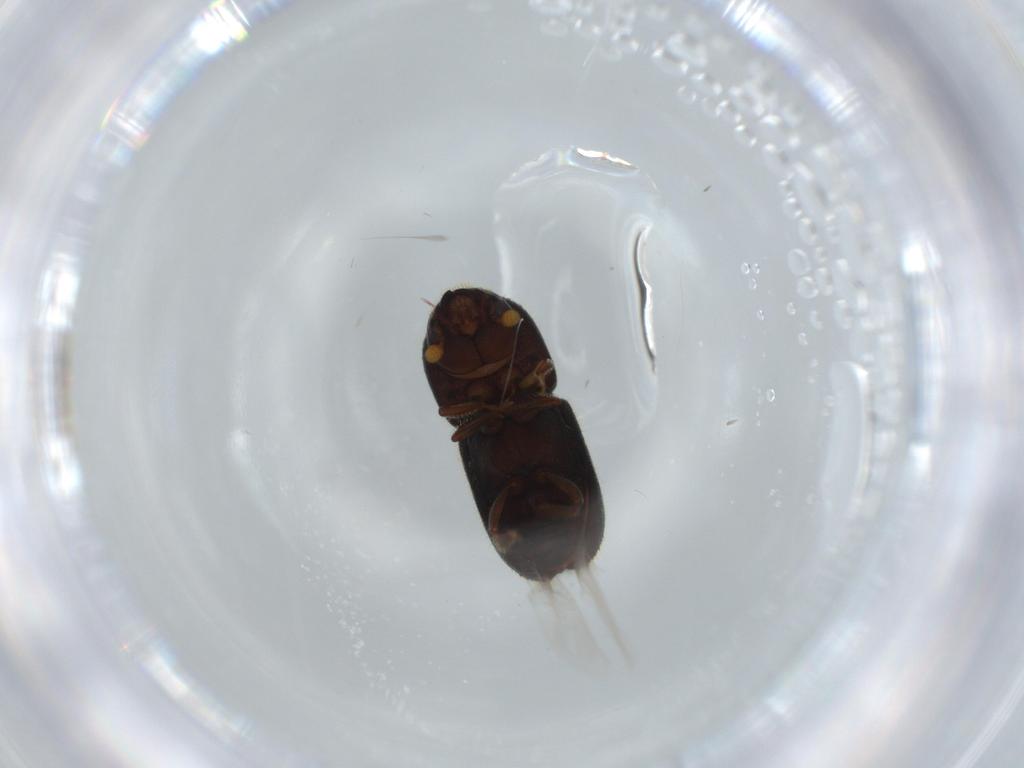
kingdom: Animalia
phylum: Arthropoda
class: Insecta
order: Coleoptera
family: Curculionidae
